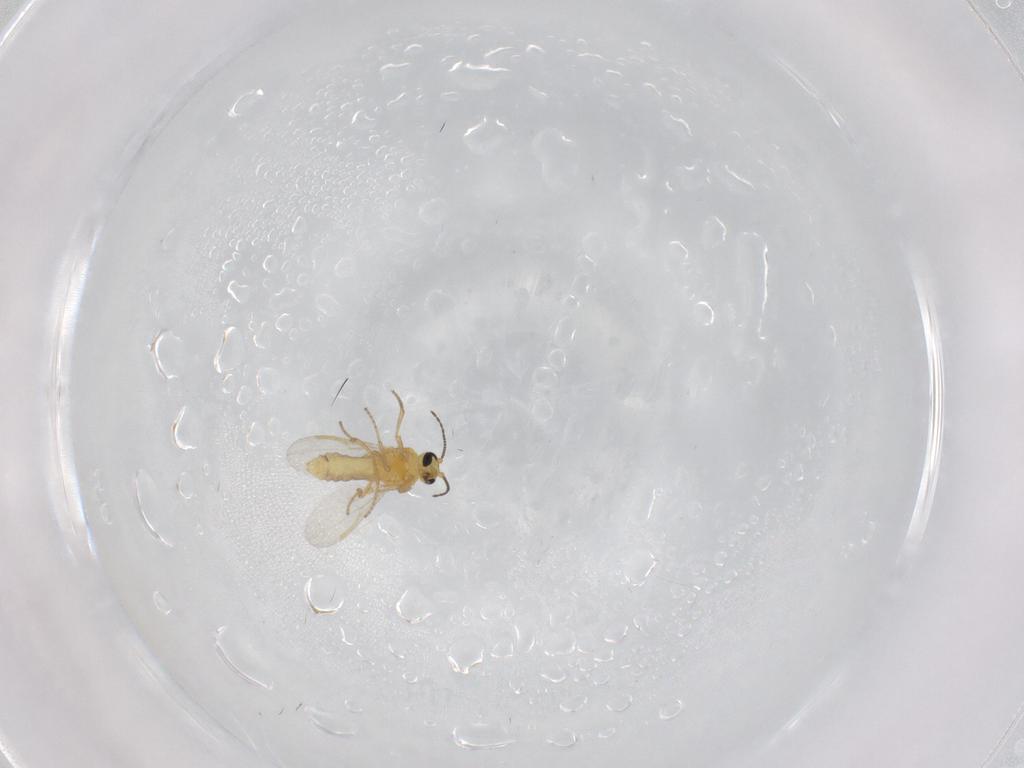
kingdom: Animalia
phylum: Arthropoda
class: Insecta
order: Diptera
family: Ceratopogonidae
